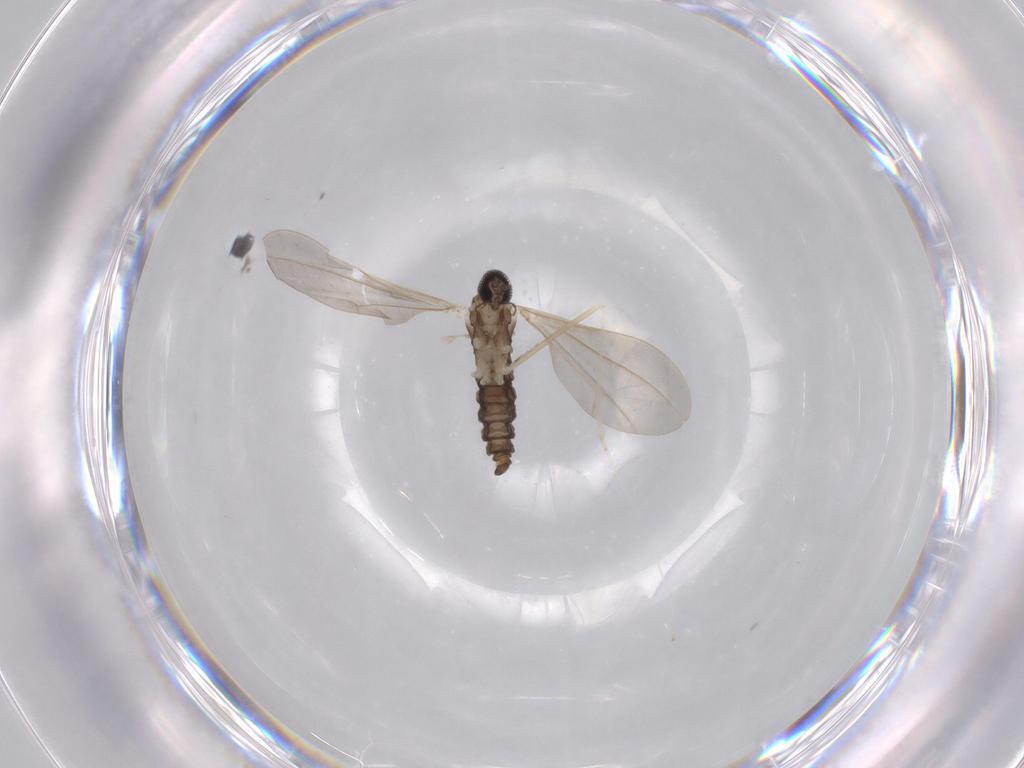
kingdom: Animalia
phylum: Arthropoda
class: Insecta
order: Diptera
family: Cecidomyiidae
